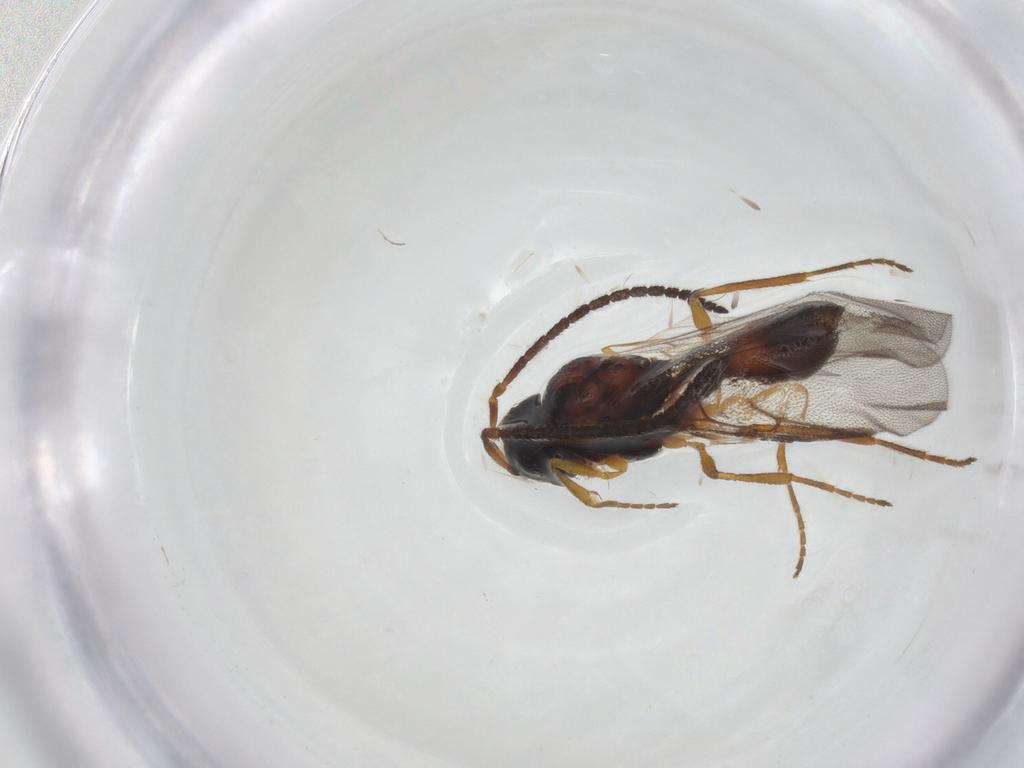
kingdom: Animalia
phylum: Arthropoda
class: Insecta
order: Hymenoptera
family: Diapriidae
